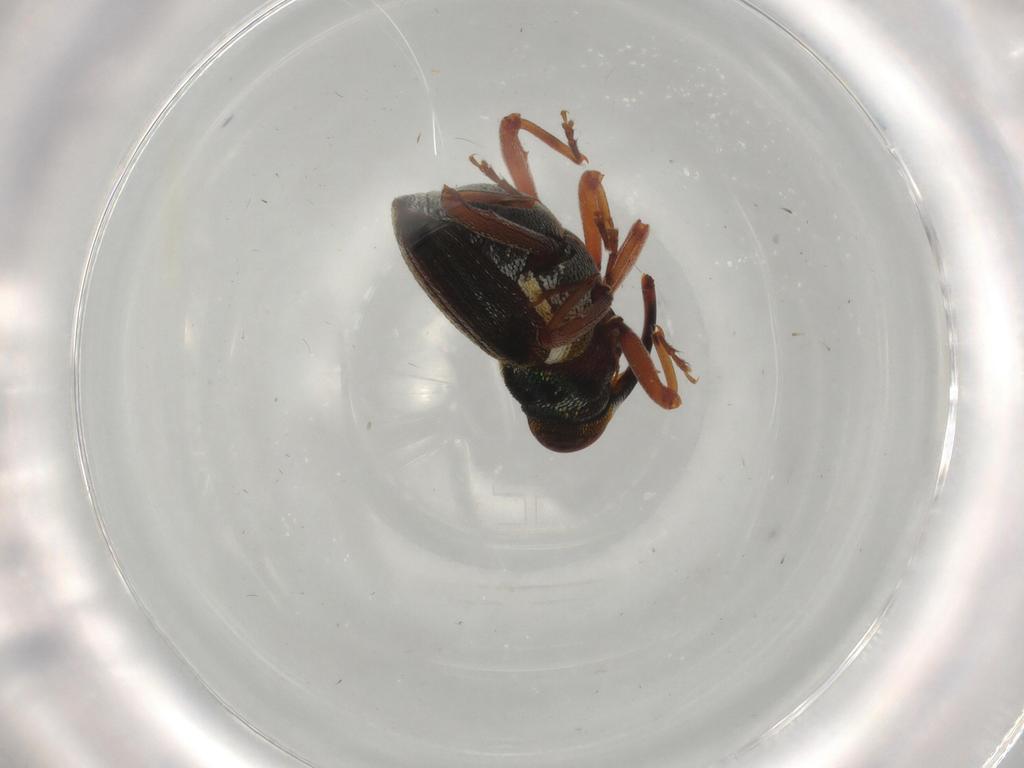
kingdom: Animalia
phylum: Arthropoda
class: Insecta
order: Coleoptera
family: Curculionidae
